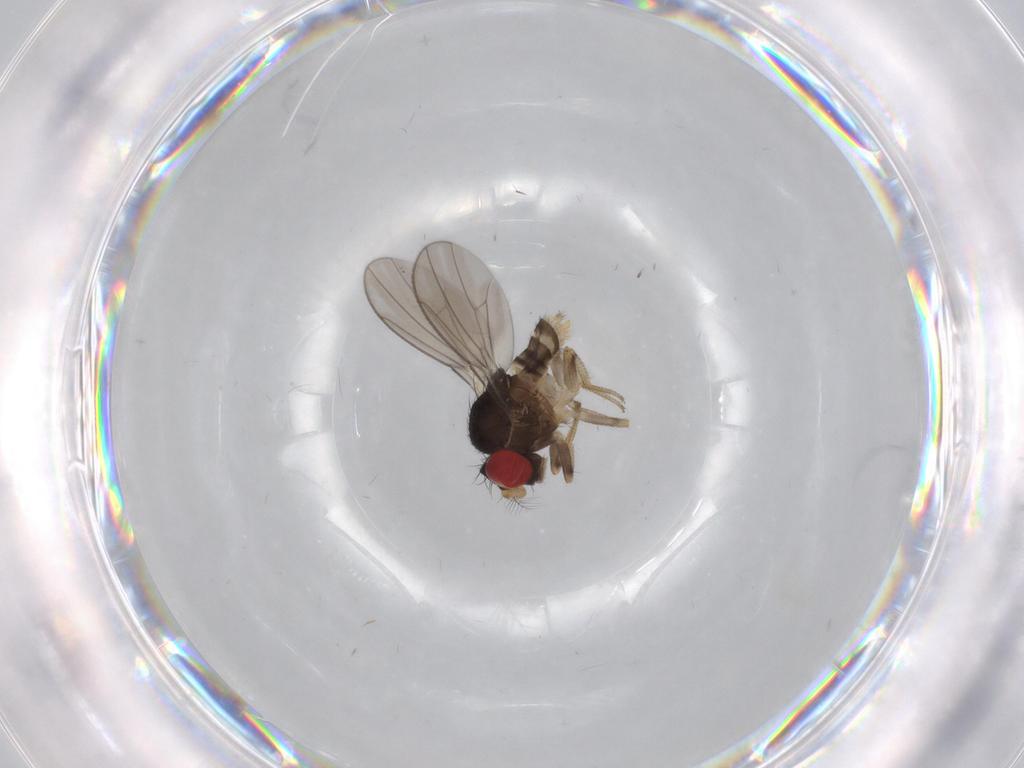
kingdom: Animalia
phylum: Arthropoda
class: Insecta
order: Diptera
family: Drosophilidae
